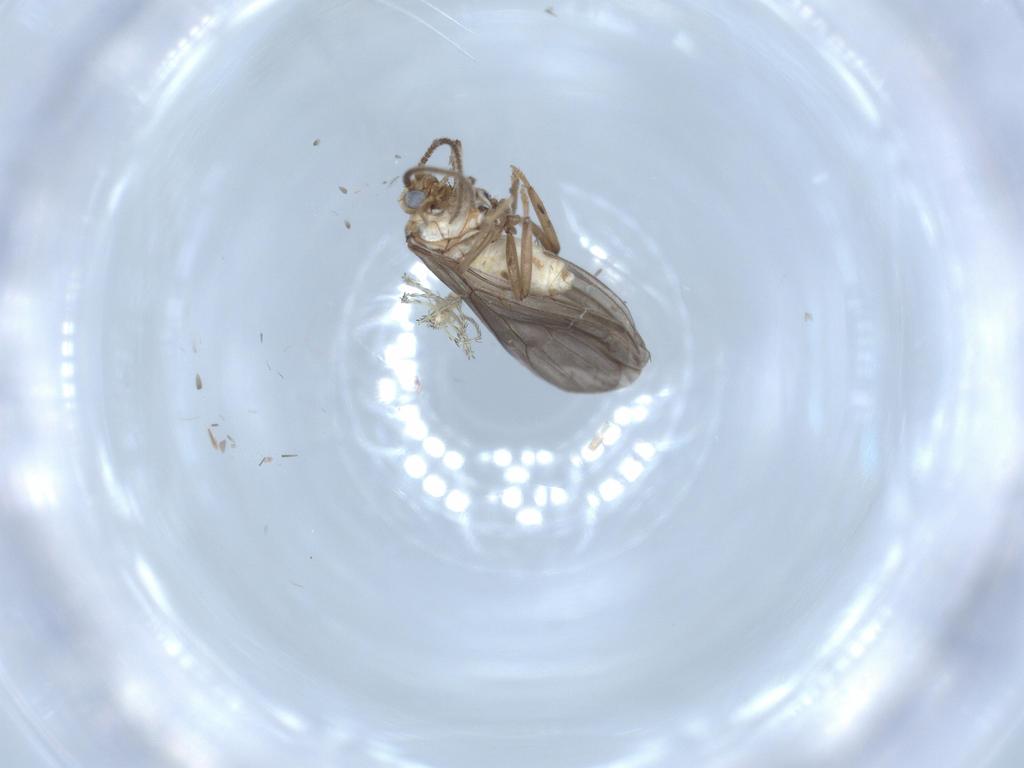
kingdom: Animalia
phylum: Arthropoda
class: Insecta
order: Neuroptera
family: Coniopterygidae
